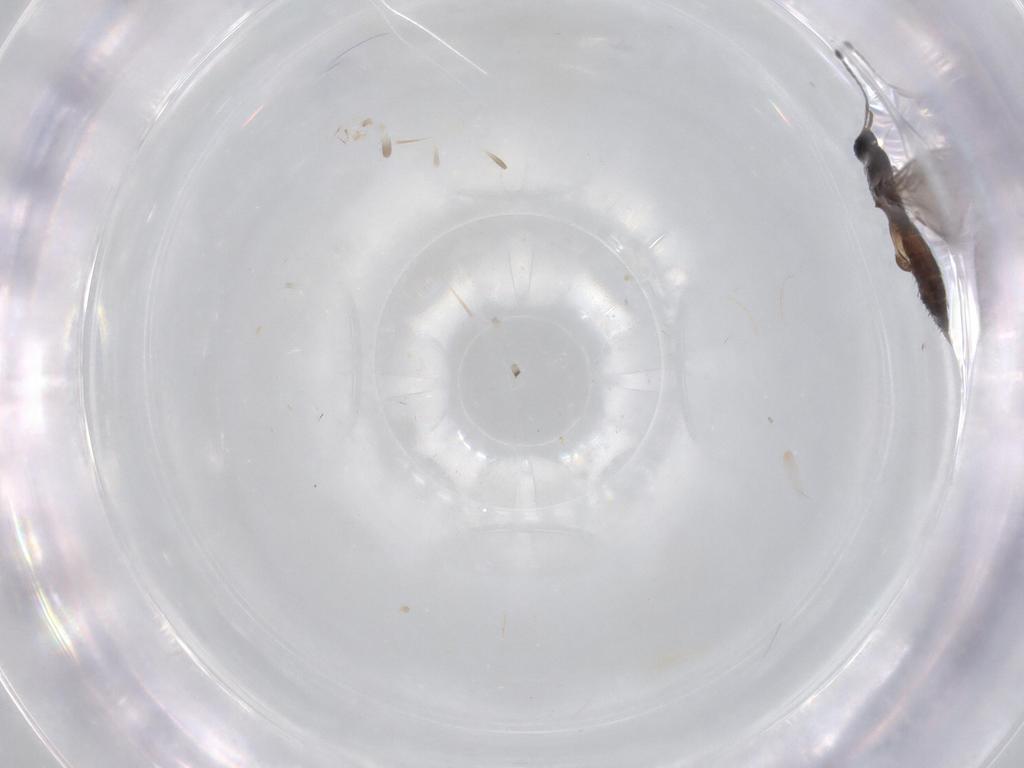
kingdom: Animalia
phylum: Arthropoda
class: Insecta
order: Diptera
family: Sciaridae
